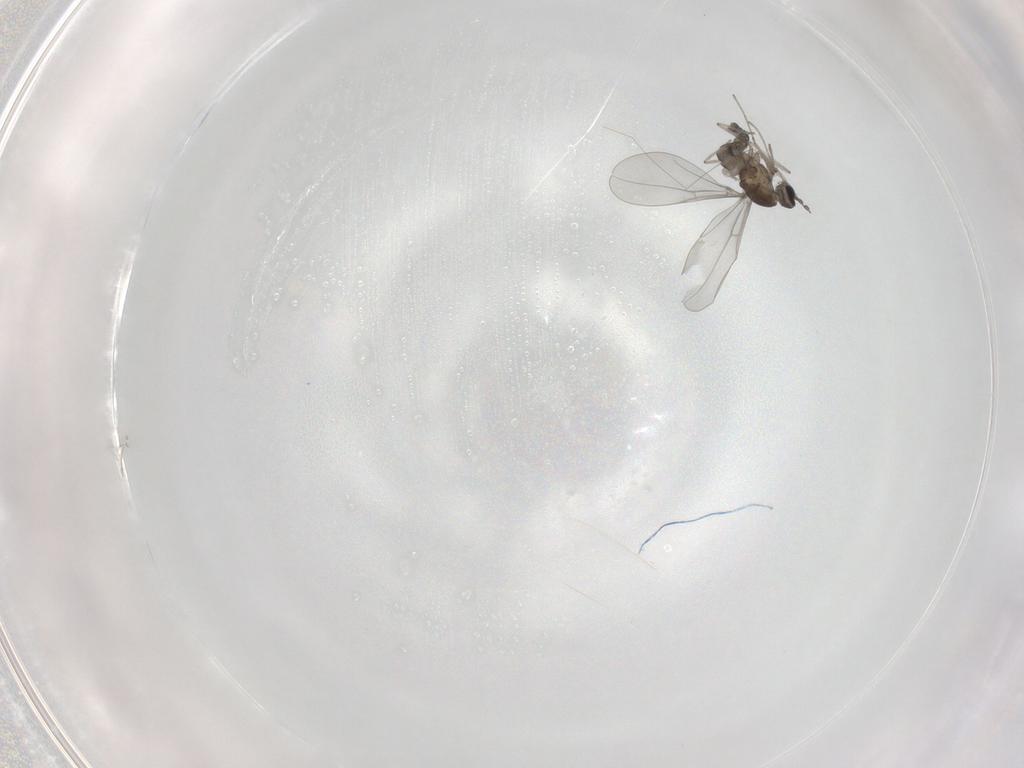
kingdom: Animalia
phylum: Arthropoda
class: Insecta
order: Diptera
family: Cecidomyiidae
